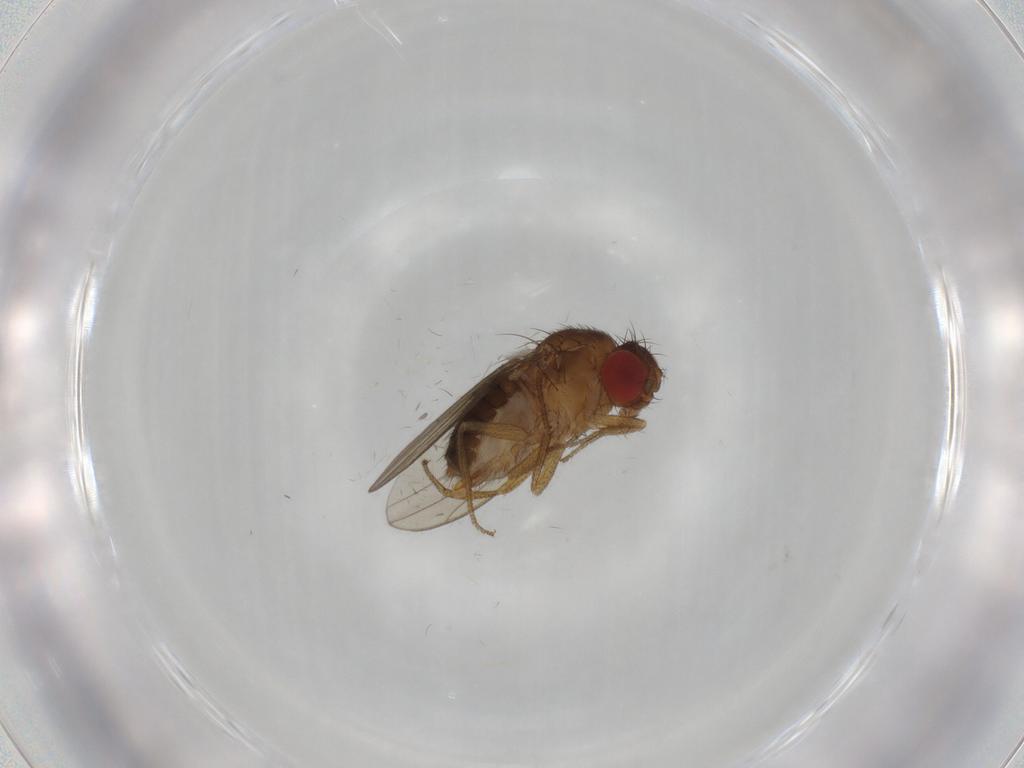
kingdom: Animalia
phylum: Arthropoda
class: Insecta
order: Diptera
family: Drosophilidae
